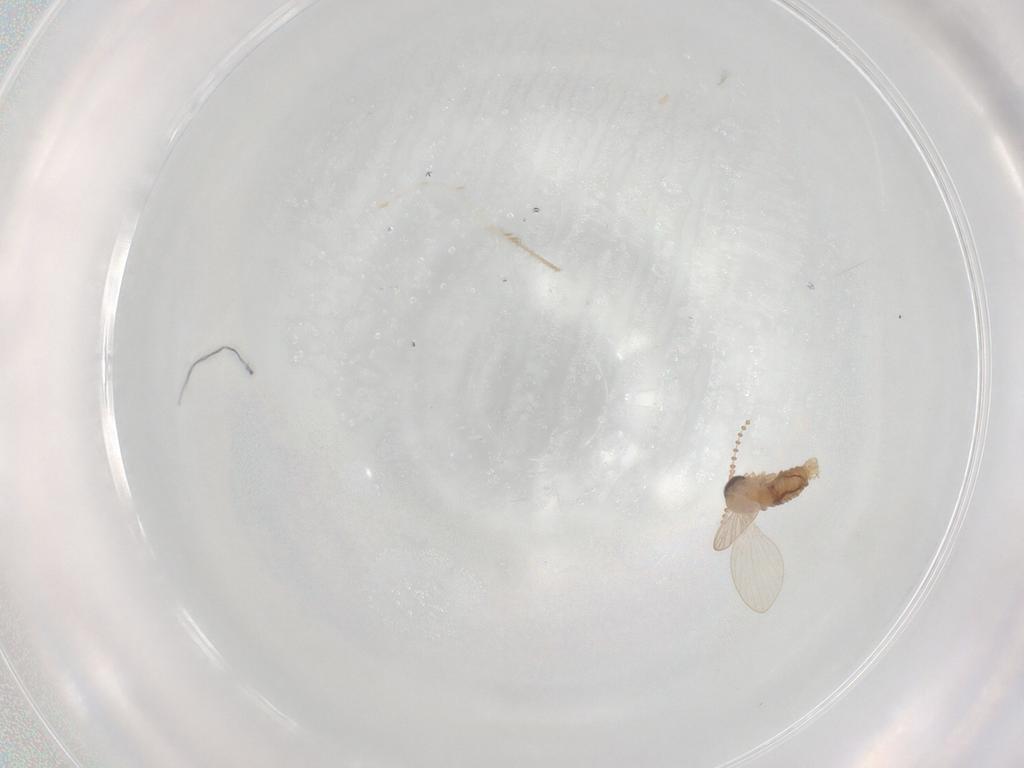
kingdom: Animalia
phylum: Arthropoda
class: Insecta
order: Diptera
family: Psychodidae
